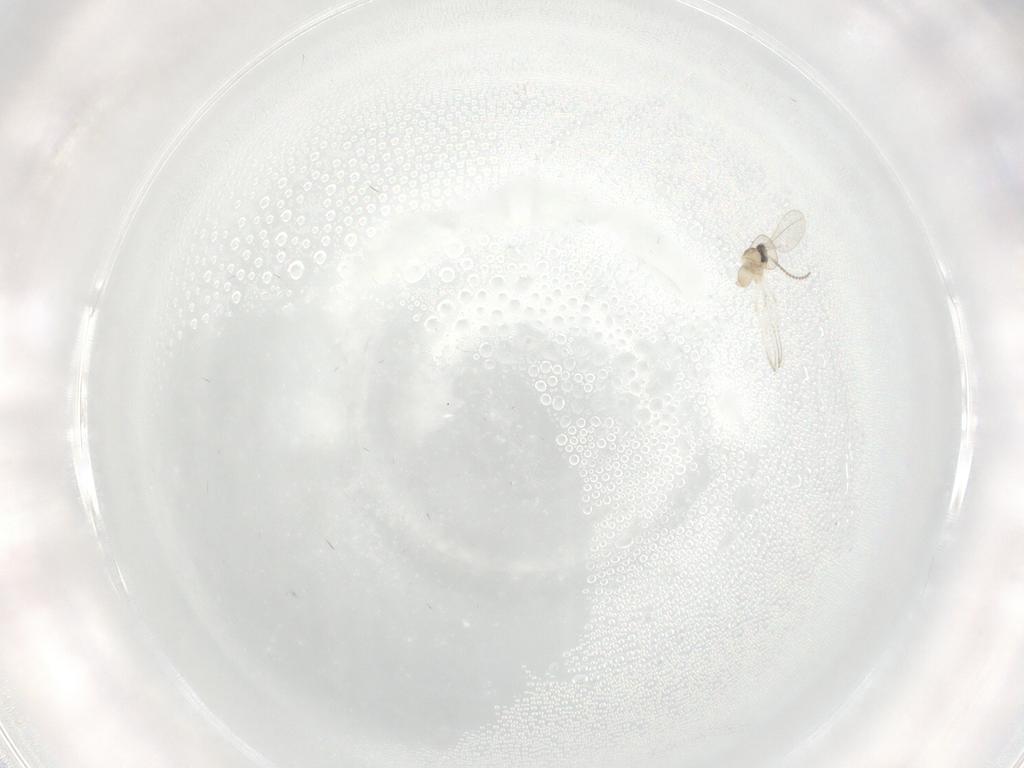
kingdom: Animalia
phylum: Arthropoda
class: Insecta
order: Diptera
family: Cecidomyiidae
